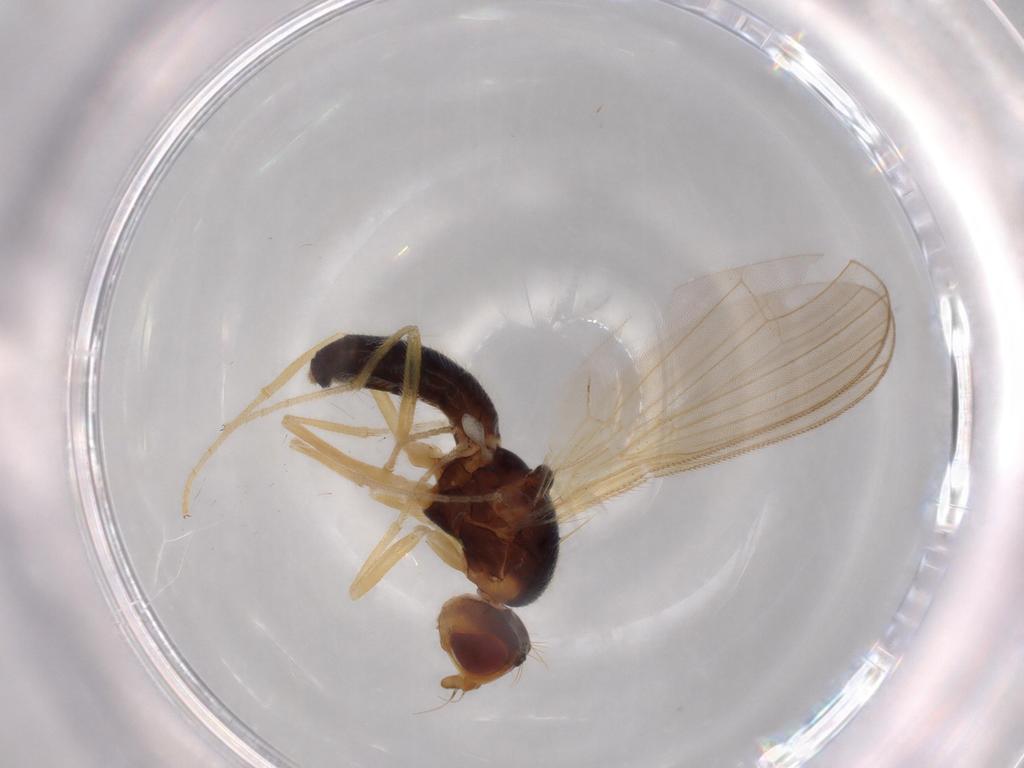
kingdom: Animalia
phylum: Arthropoda
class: Insecta
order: Diptera
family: Psilidae
